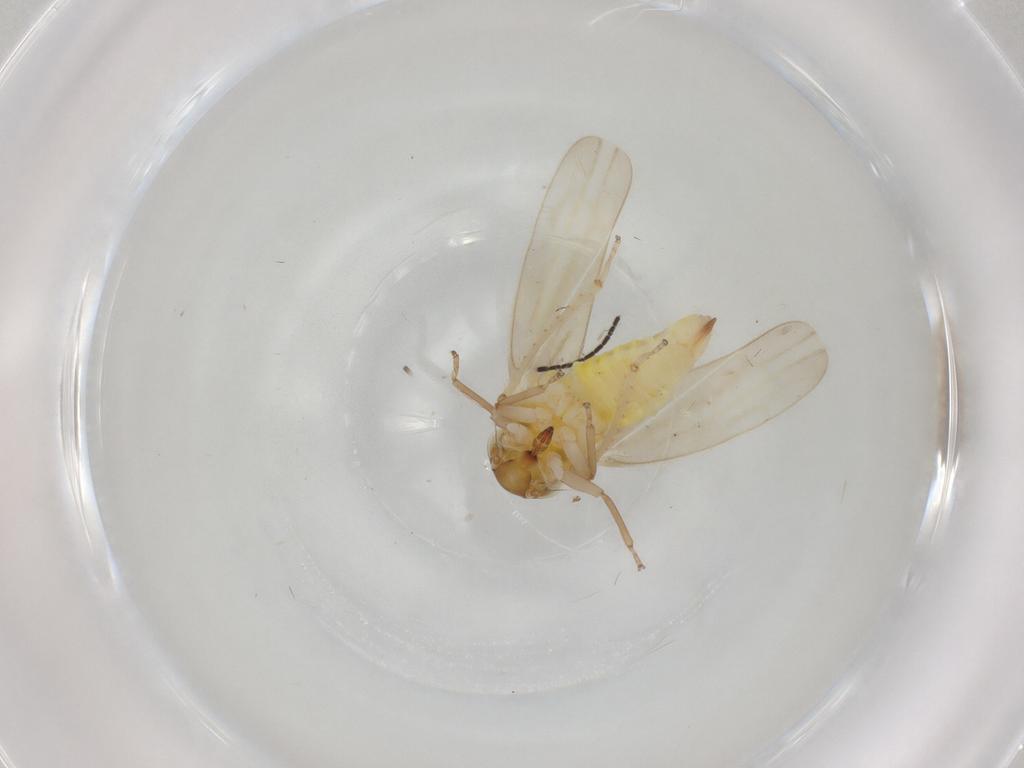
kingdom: Animalia
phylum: Arthropoda
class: Insecta
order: Hemiptera
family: Cicadellidae
